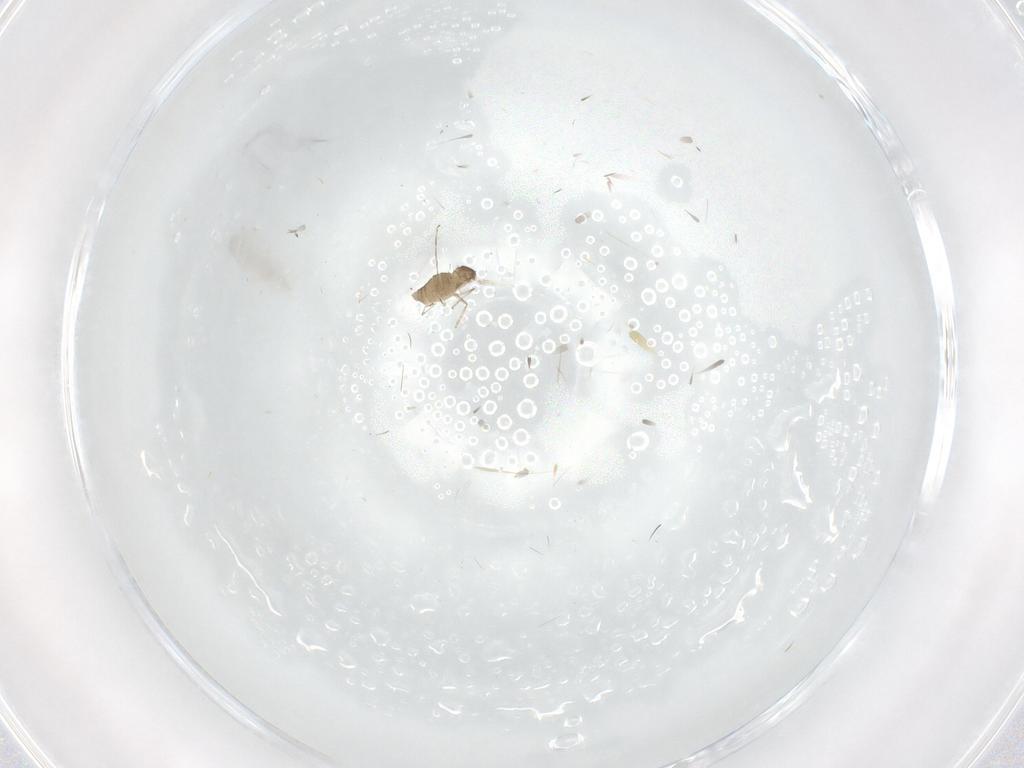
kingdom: Animalia
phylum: Arthropoda
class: Insecta
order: Diptera
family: Cecidomyiidae
